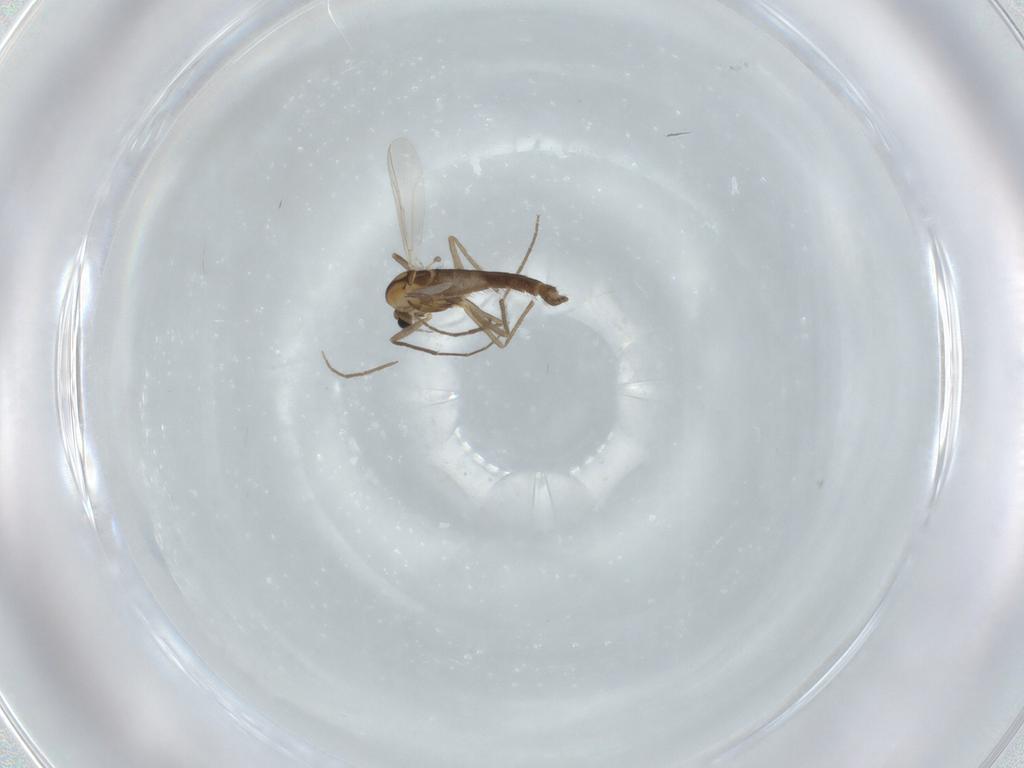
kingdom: Animalia
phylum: Arthropoda
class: Insecta
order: Diptera
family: Chironomidae
